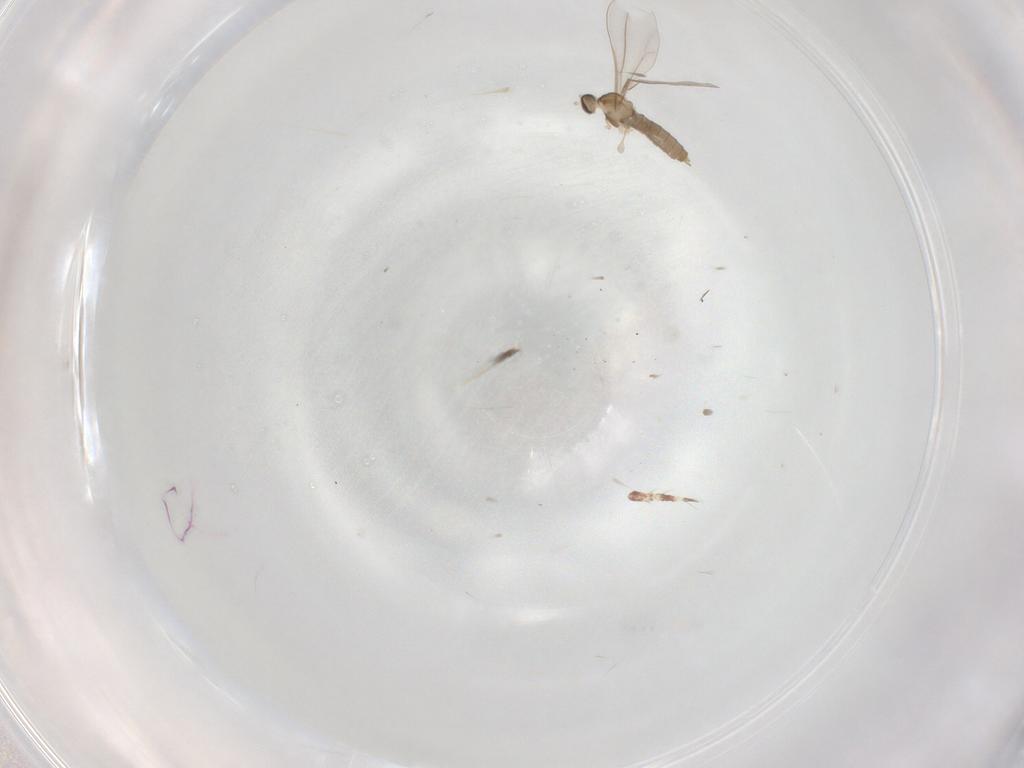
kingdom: Animalia
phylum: Arthropoda
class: Insecta
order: Diptera
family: Cecidomyiidae
